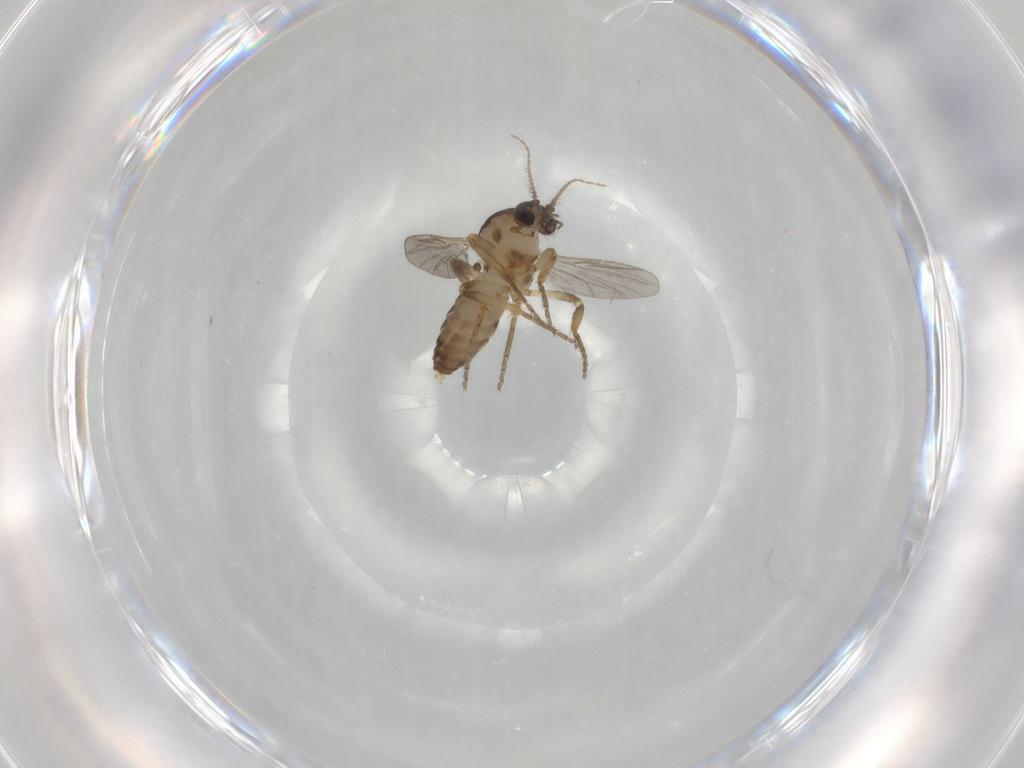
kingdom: Animalia
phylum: Arthropoda
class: Insecta
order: Diptera
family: Ceratopogonidae
